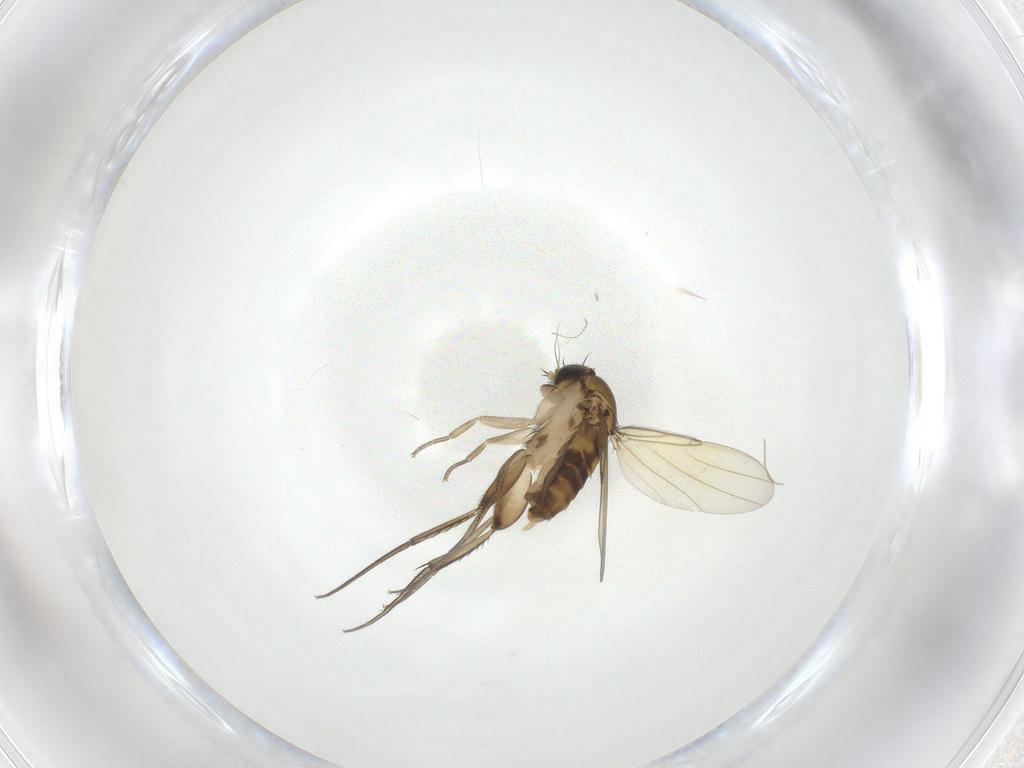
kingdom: Animalia
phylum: Arthropoda
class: Insecta
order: Diptera
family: Phoridae
